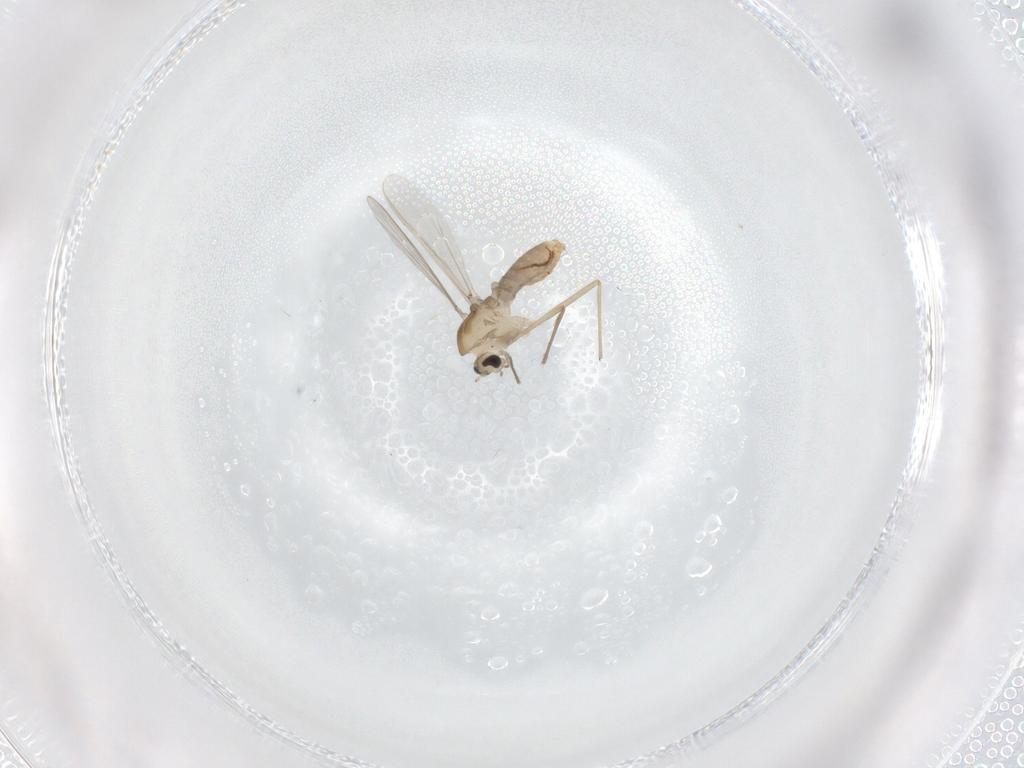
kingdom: Animalia
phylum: Arthropoda
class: Insecta
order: Diptera
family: Chironomidae
